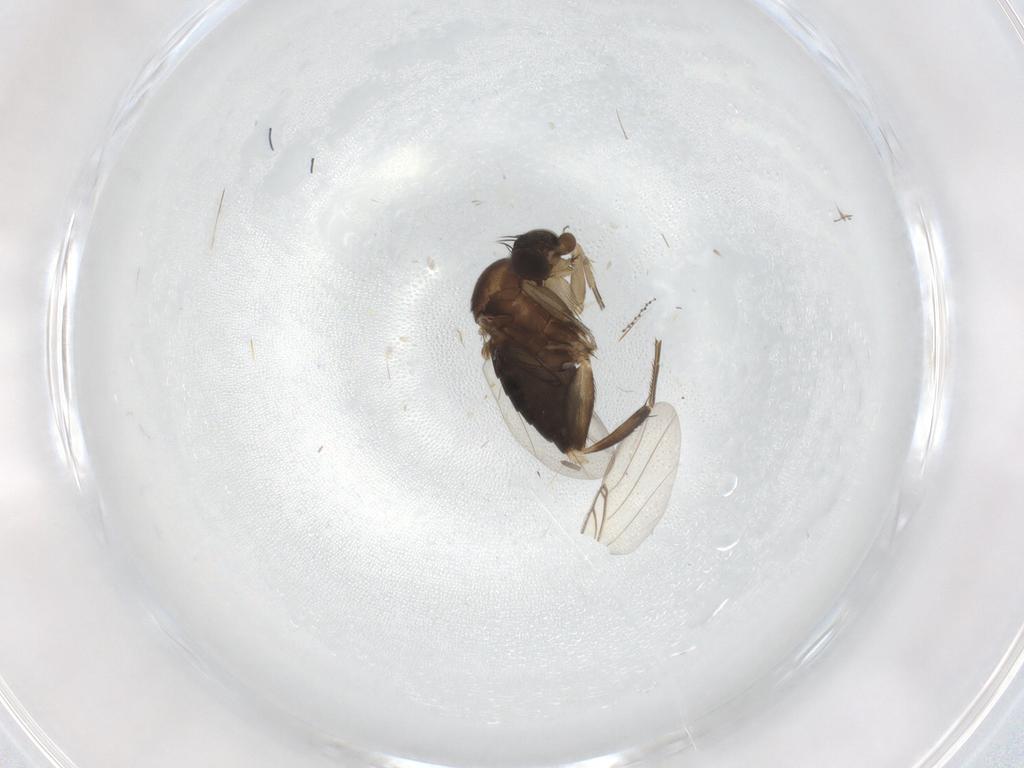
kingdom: Animalia
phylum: Arthropoda
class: Insecta
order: Diptera
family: Phoridae
